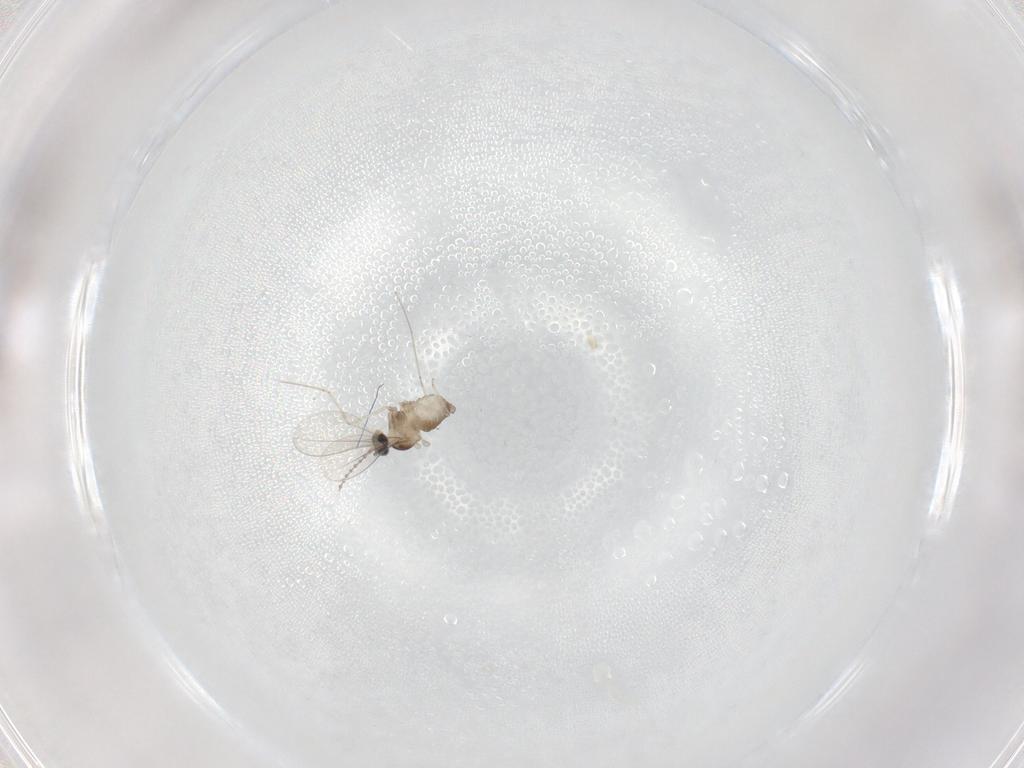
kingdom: Animalia
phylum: Arthropoda
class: Insecta
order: Diptera
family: Cecidomyiidae
